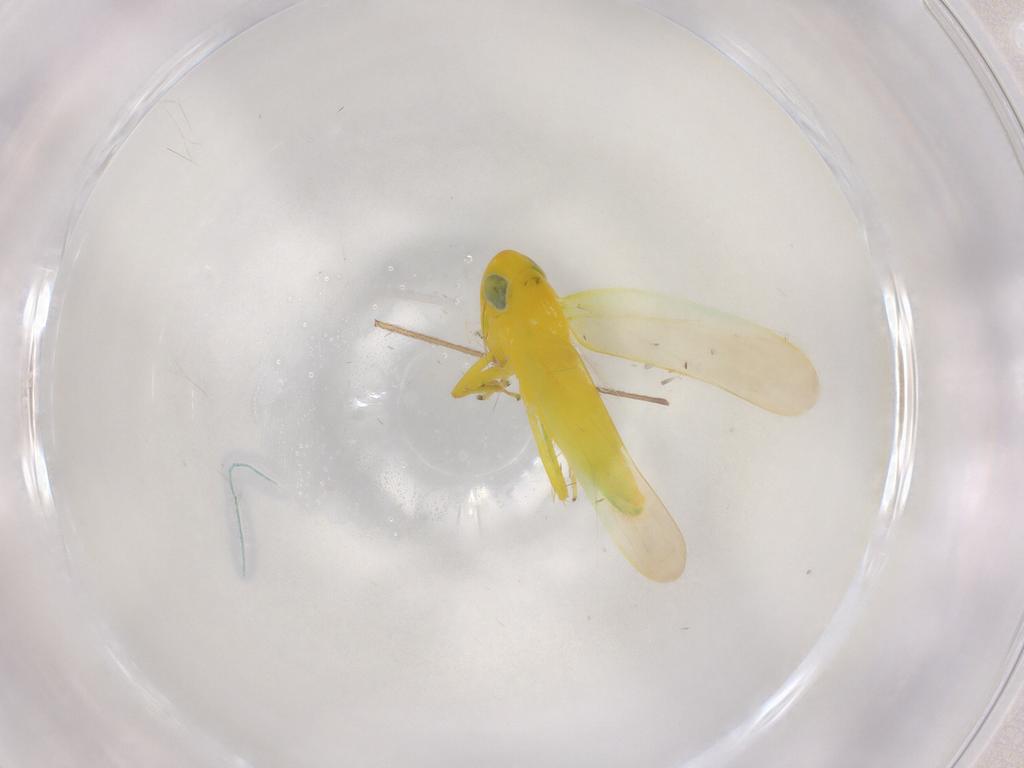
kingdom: Animalia
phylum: Arthropoda
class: Insecta
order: Hemiptera
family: Cicadellidae
